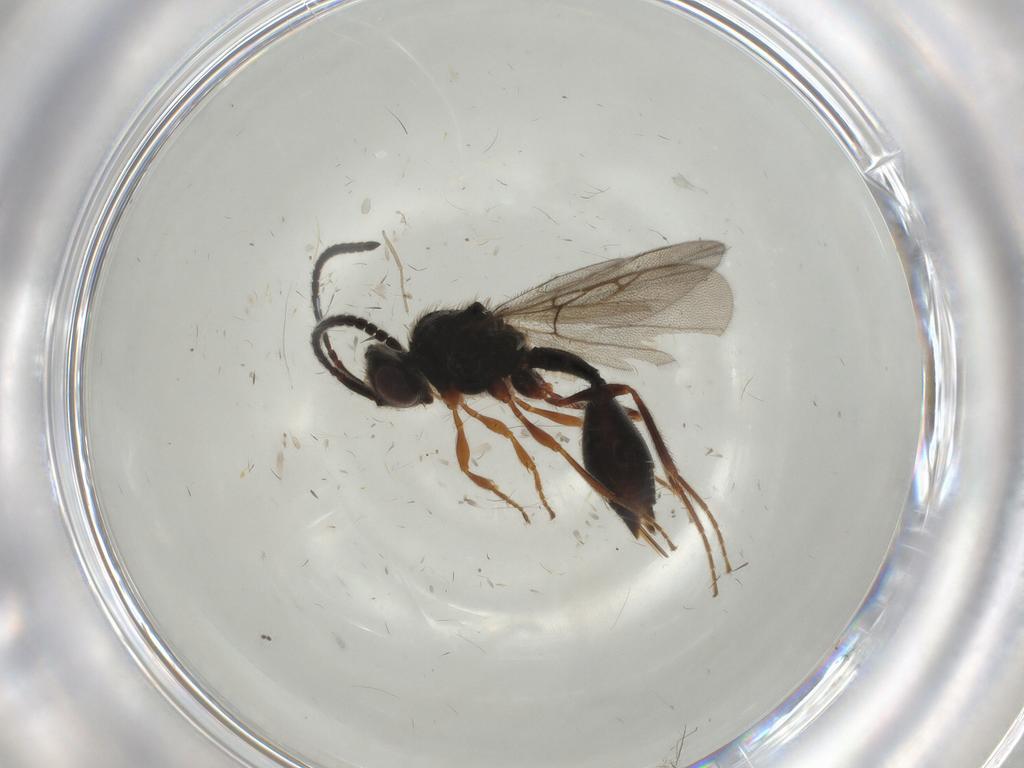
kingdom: Animalia
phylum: Arthropoda
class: Insecta
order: Hymenoptera
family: Diapriidae
